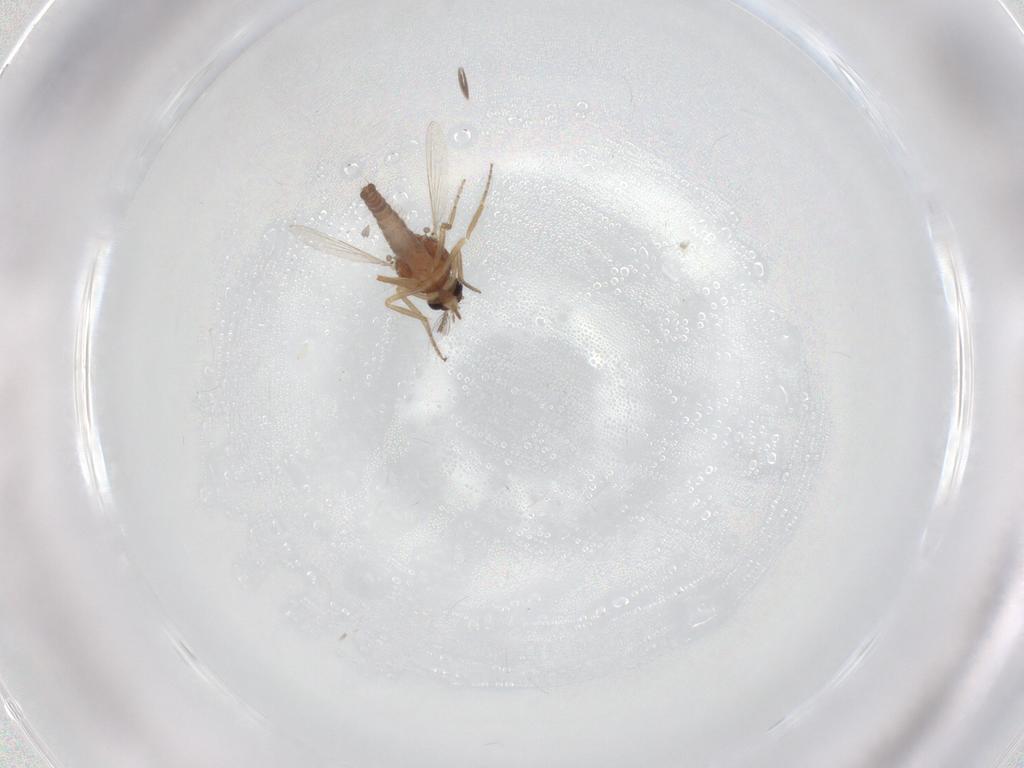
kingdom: Animalia
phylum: Arthropoda
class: Insecta
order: Diptera
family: Ceratopogonidae
